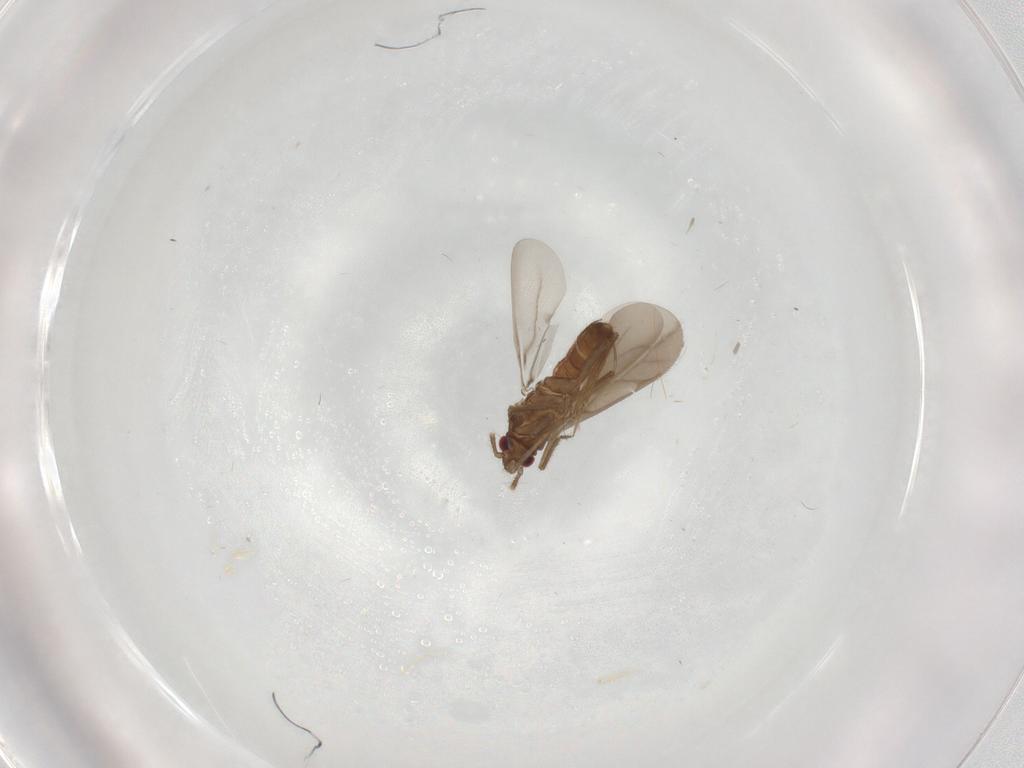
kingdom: Animalia
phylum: Arthropoda
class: Insecta
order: Hemiptera
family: Ceratocombidae
